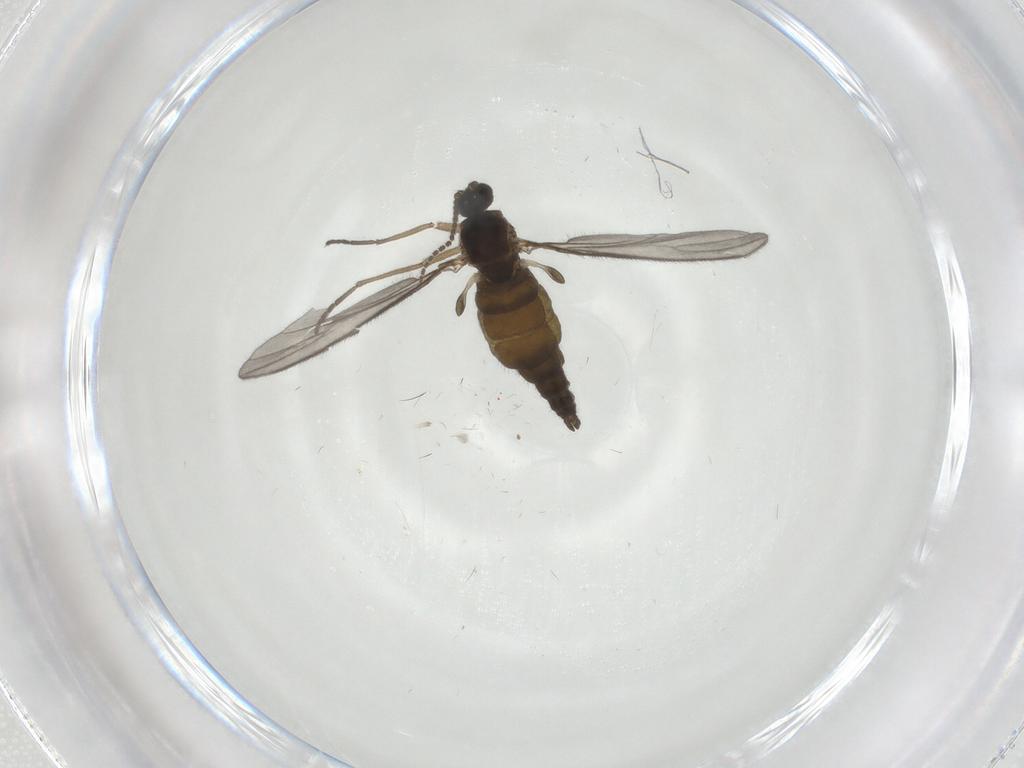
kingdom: Animalia
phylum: Arthropoda
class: Insecta
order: Diptera
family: Sciaridae
